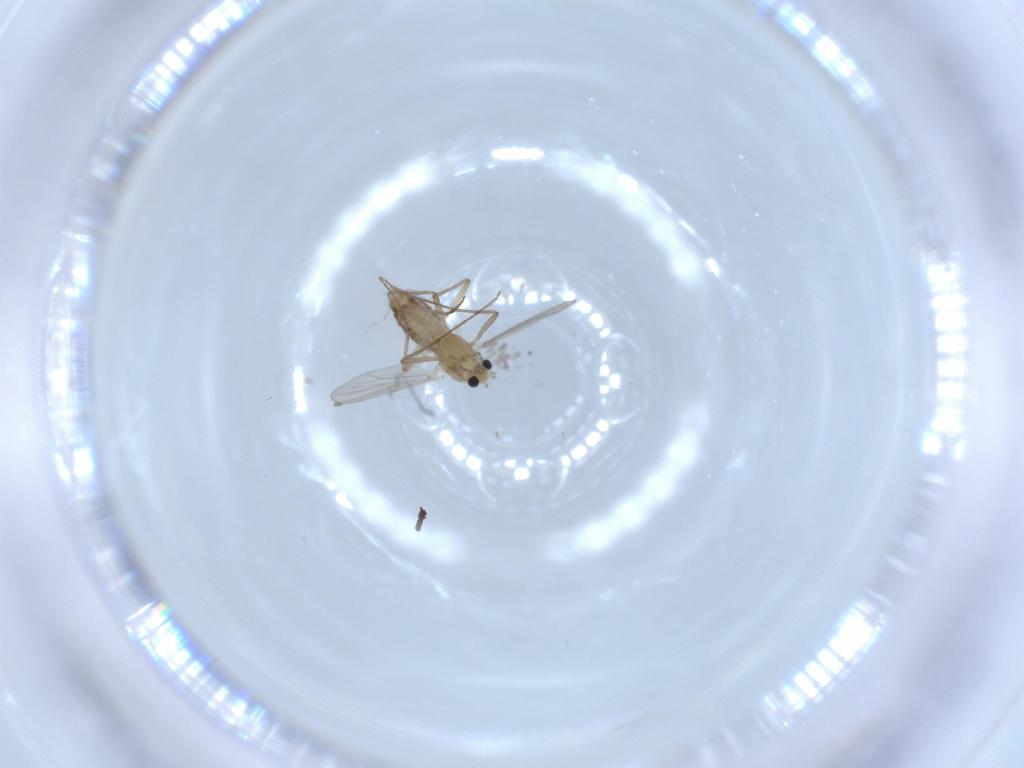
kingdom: Animalia
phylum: Arthropoda
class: Insecta
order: Diptera
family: Chironomidae
